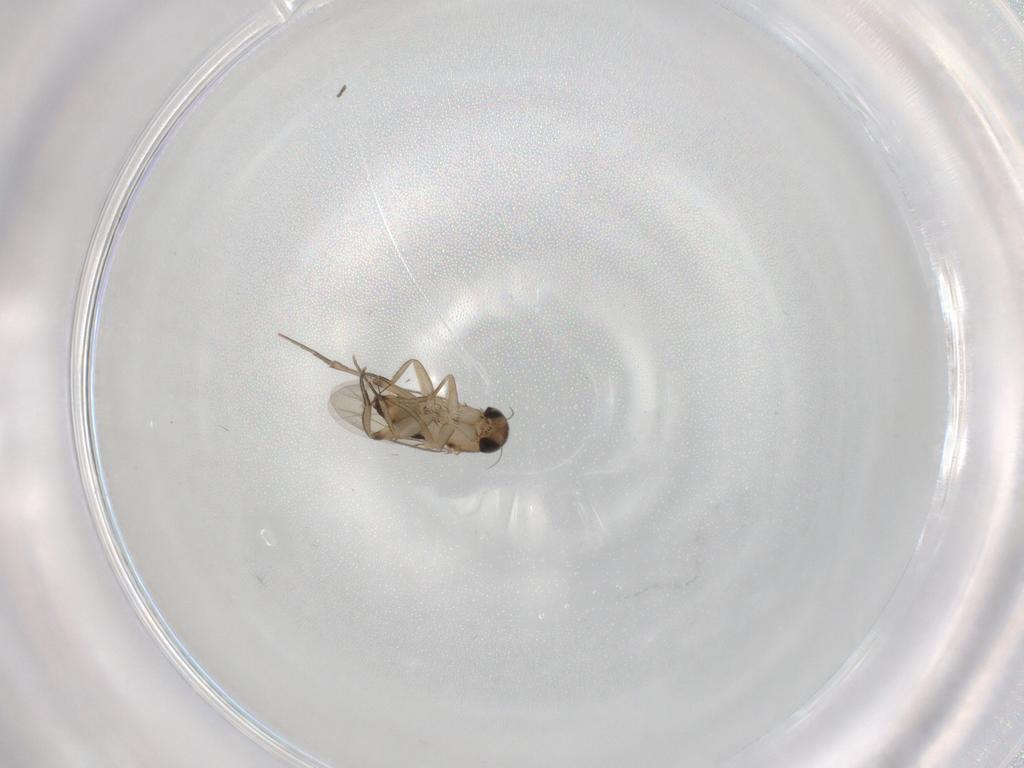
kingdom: Animalia
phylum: Arthropoda
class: Insecta
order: Diptera
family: Phoridae
